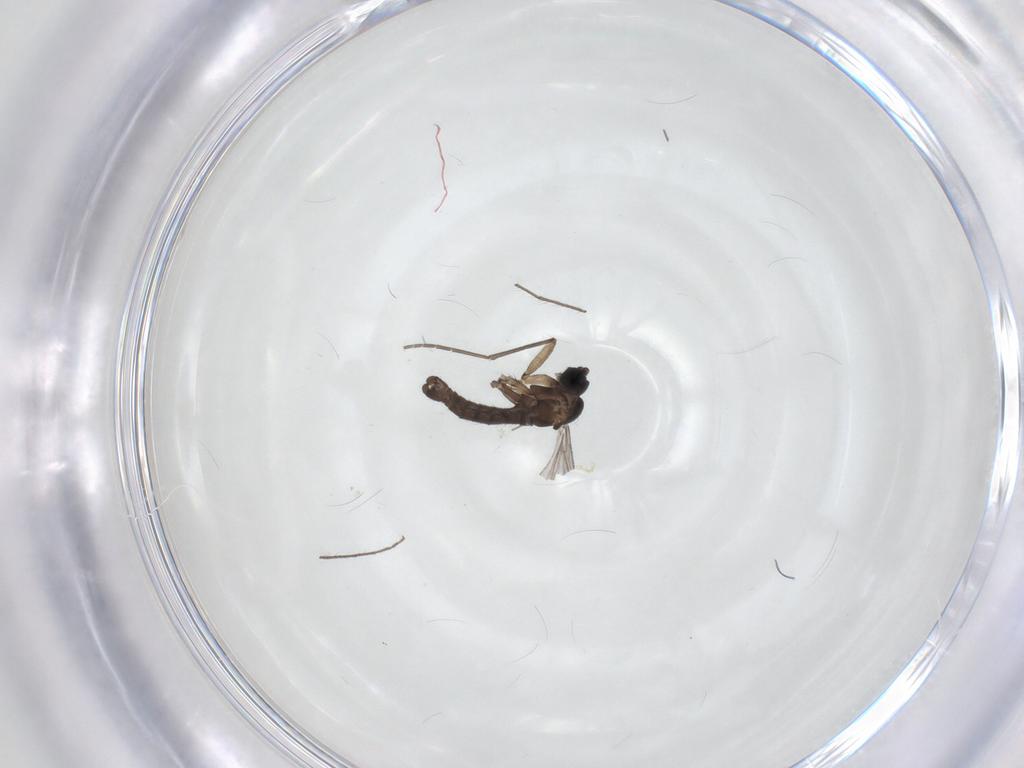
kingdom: Animalia
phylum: Arthropoda
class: Insecta
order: Diptera
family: Sciaridae
